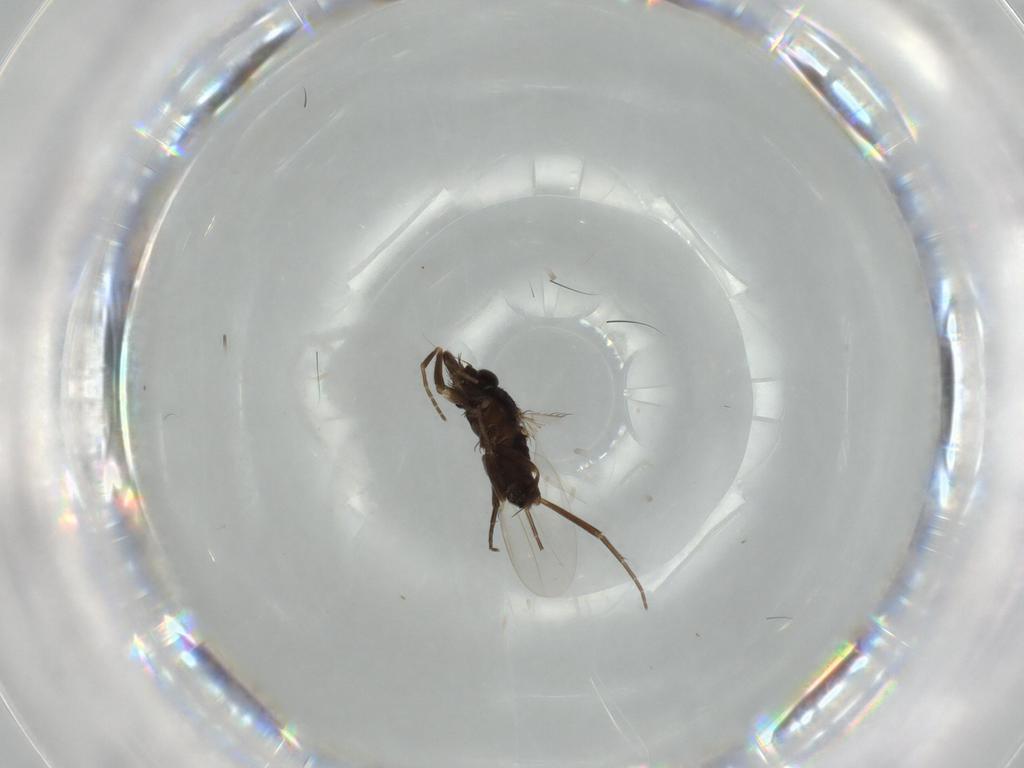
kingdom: Animalia
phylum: Arthropoda
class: Insecta
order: Diptera
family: Phoridae
